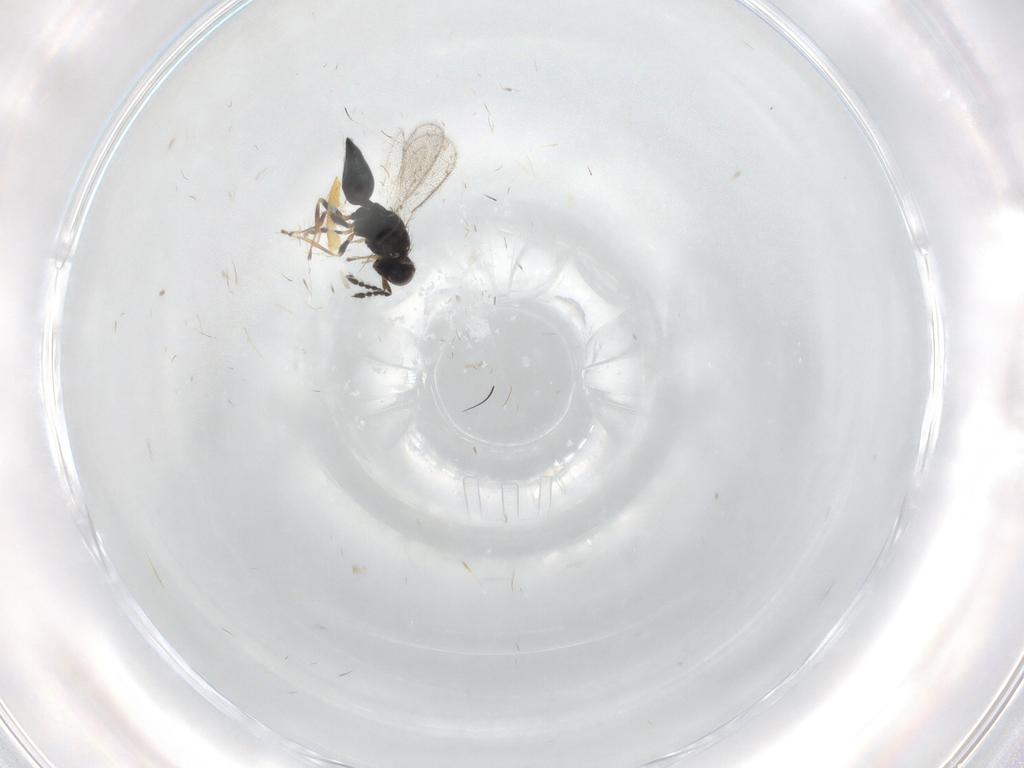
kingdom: Animalia
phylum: Arthropoda
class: Insecta
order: Hymenoptera
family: Eulophidae
